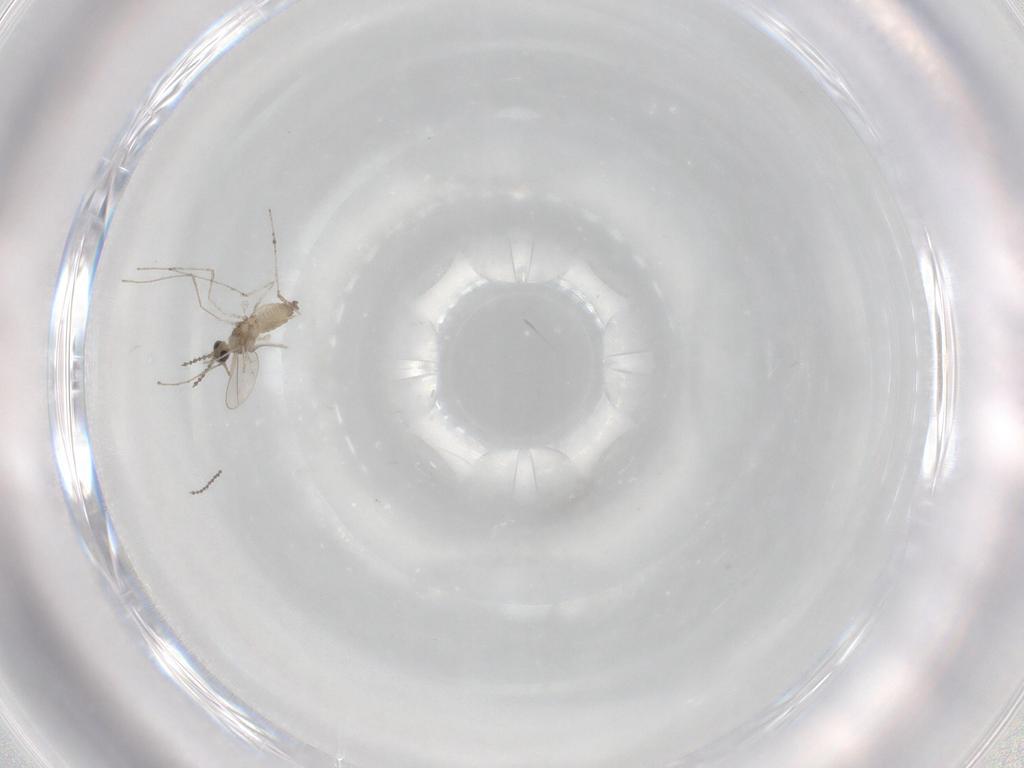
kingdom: Animalia
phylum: Arthropoda
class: Insecta
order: Diptera
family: Cecidomyiidae
